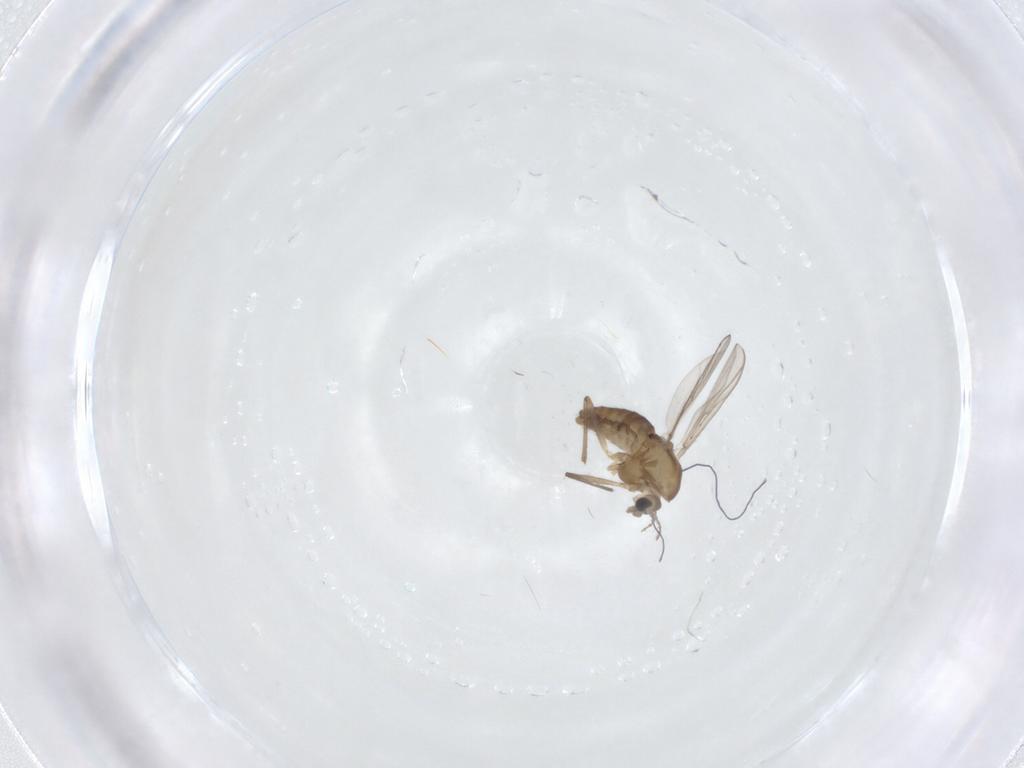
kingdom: Animalia
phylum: Arthropoda
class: Insecta
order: Diptera
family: Chironomidae
